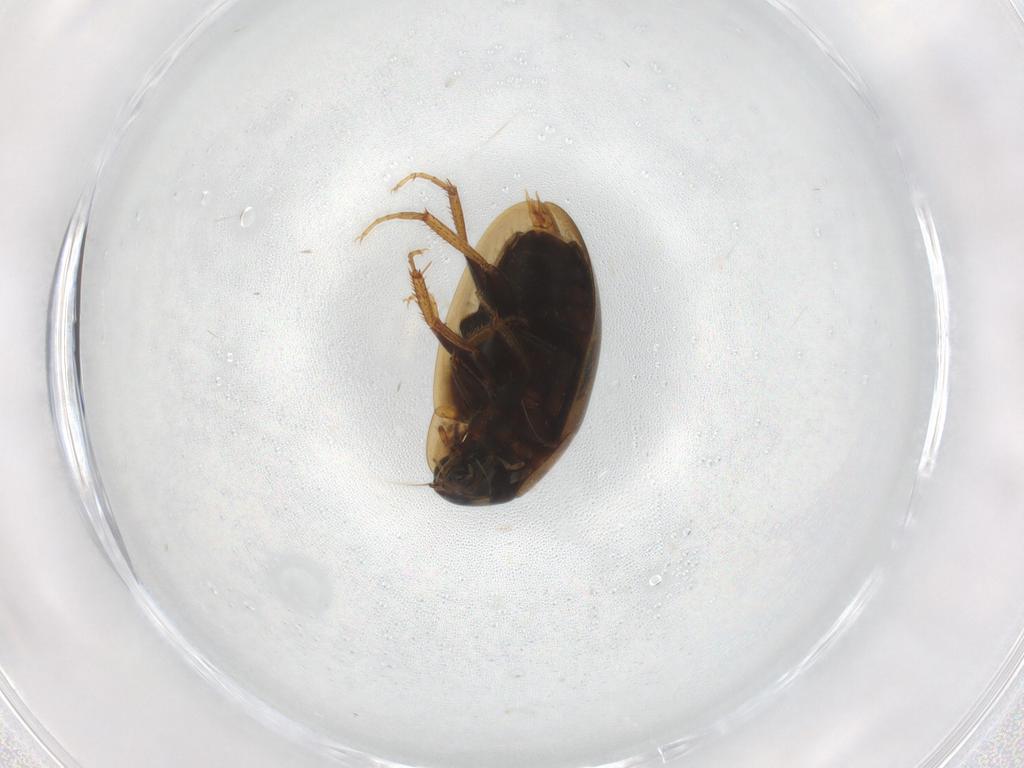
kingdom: Animalia
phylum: Arthropoda
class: Insecta
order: Coleoptera
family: Hydrophilidae
